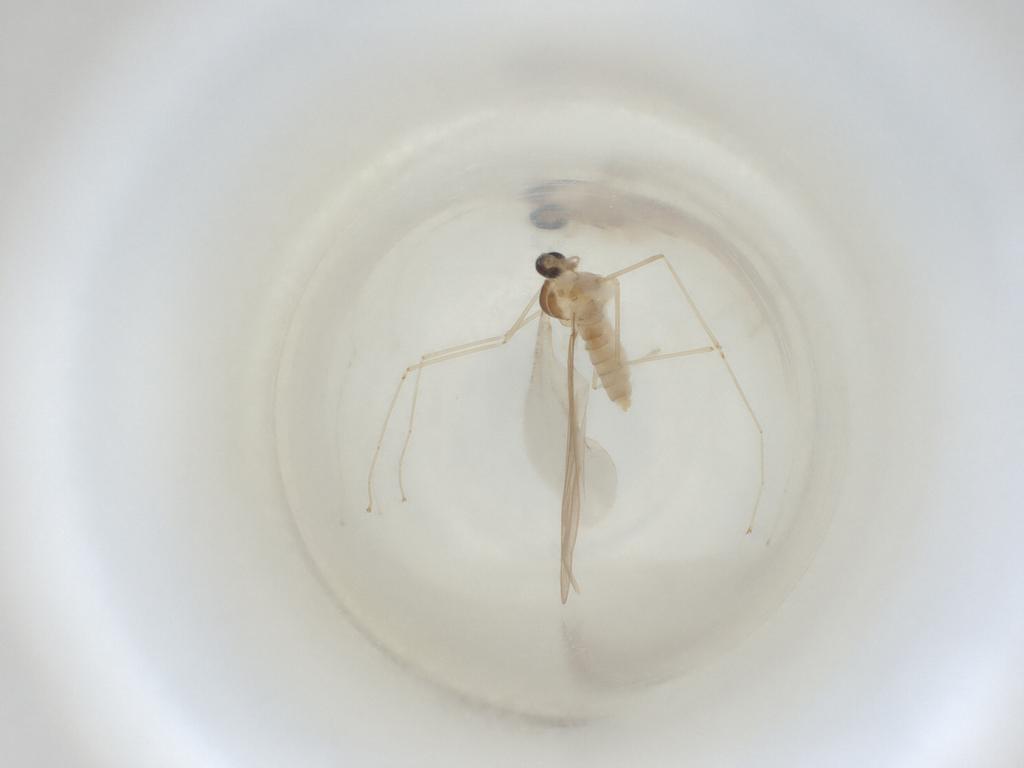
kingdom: Animalia
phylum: Arthropoda
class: Insecta
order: Diptera
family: Cecidomyiidae
